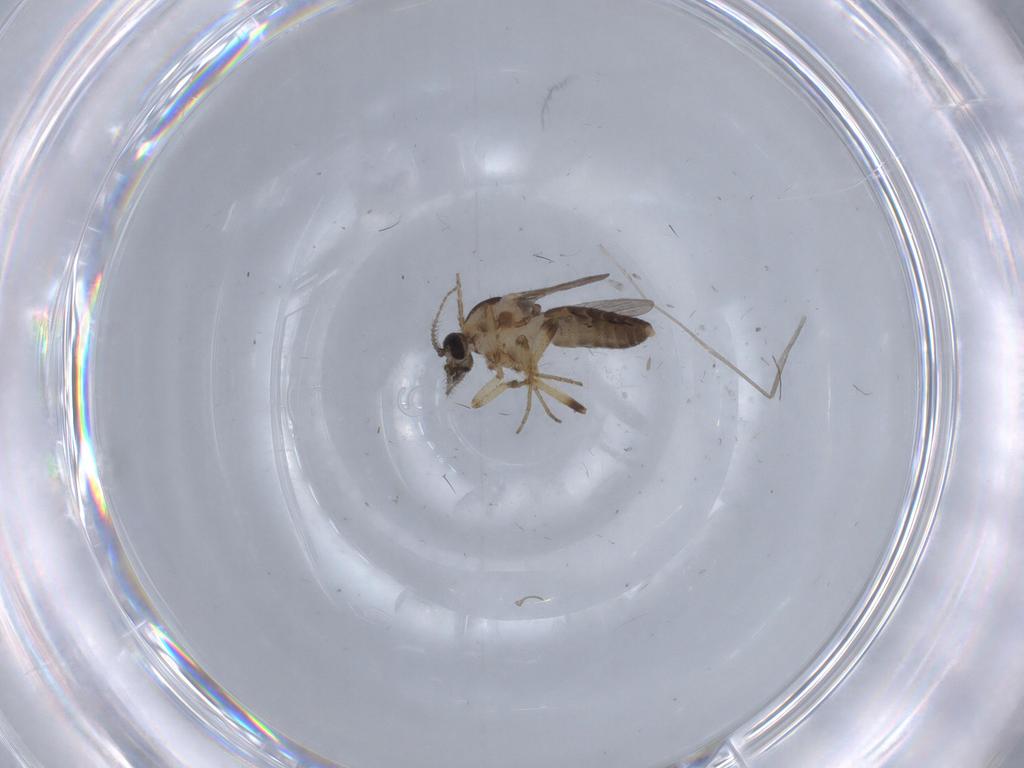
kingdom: Animalia
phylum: Arthropoda
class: Insecta
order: Diptera
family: Ceratopogonidae
